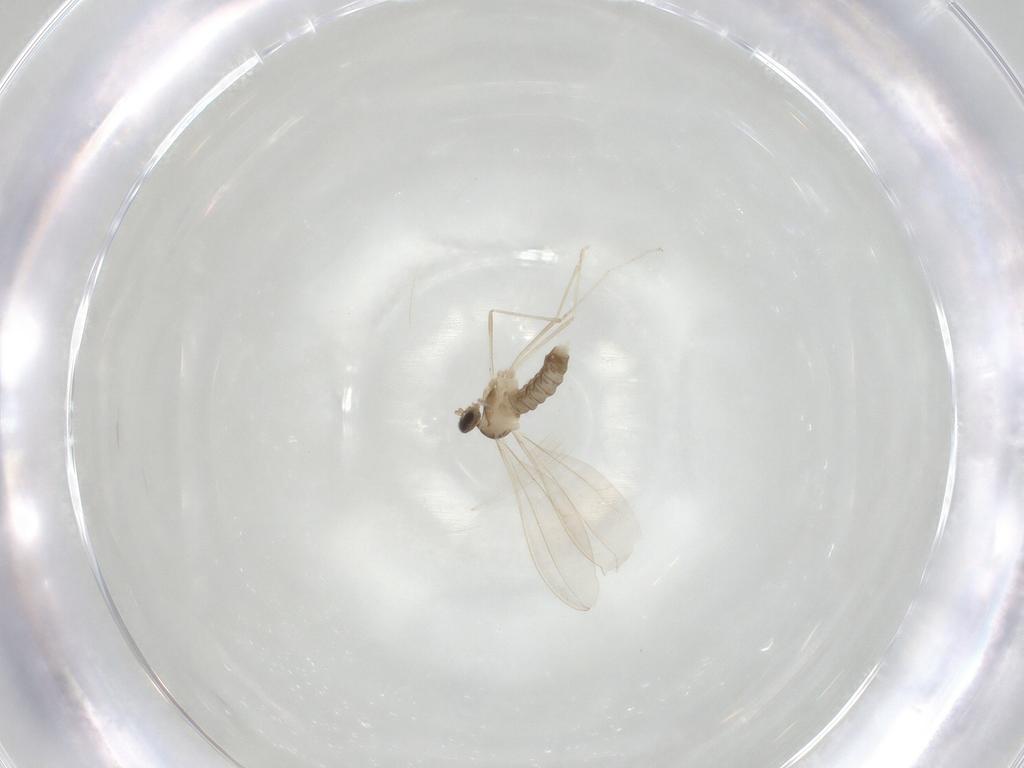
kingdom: Animalia
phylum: Arthropoda
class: Insecta
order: Diptera
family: Cecidomyiidae
